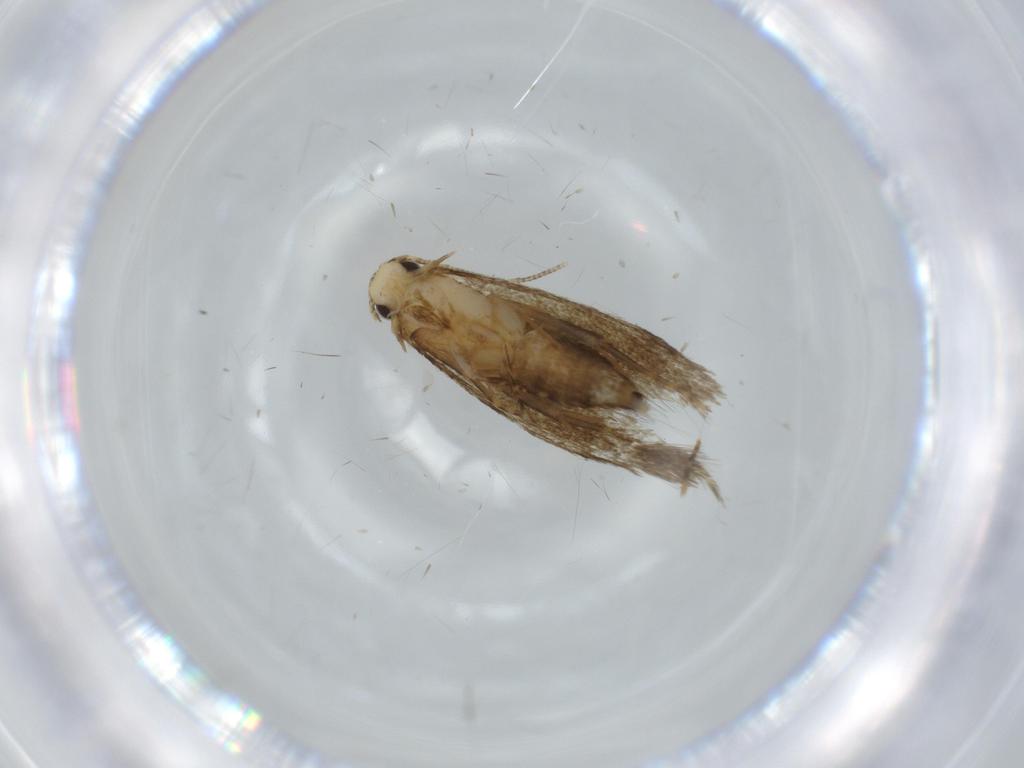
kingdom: Animalia
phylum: Arthropoda
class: Insecta
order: Lepidoptera
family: Tineidae
